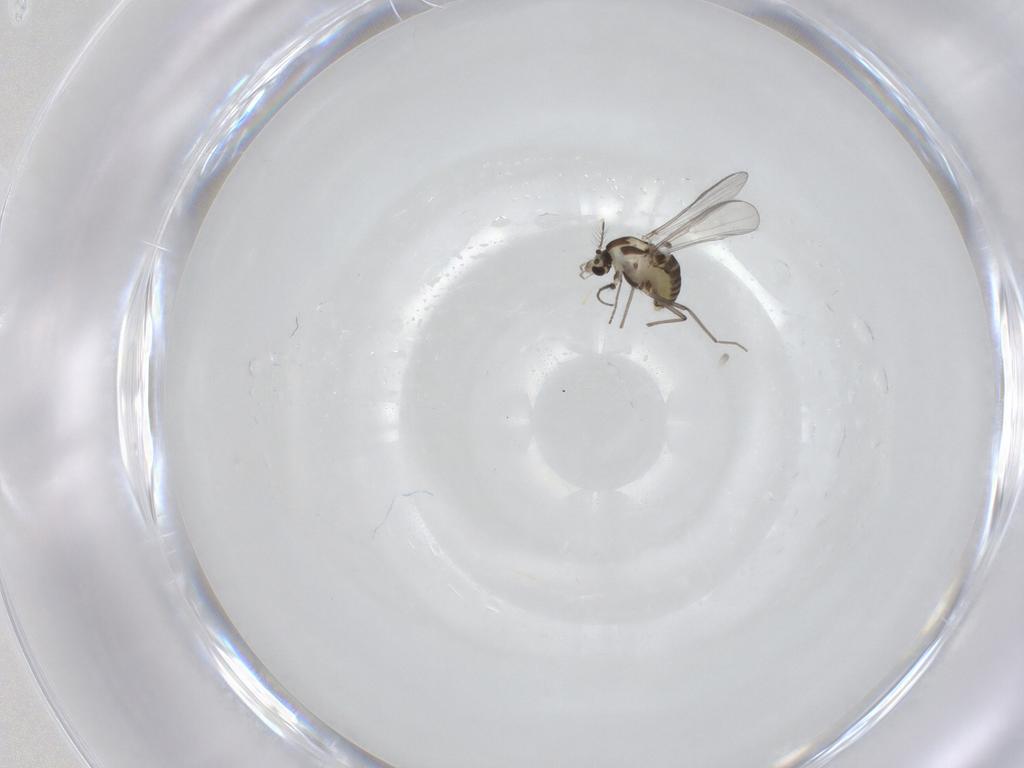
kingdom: Animalia
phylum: Arthropoda
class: Insecta
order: Diptera
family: Chironomidae
